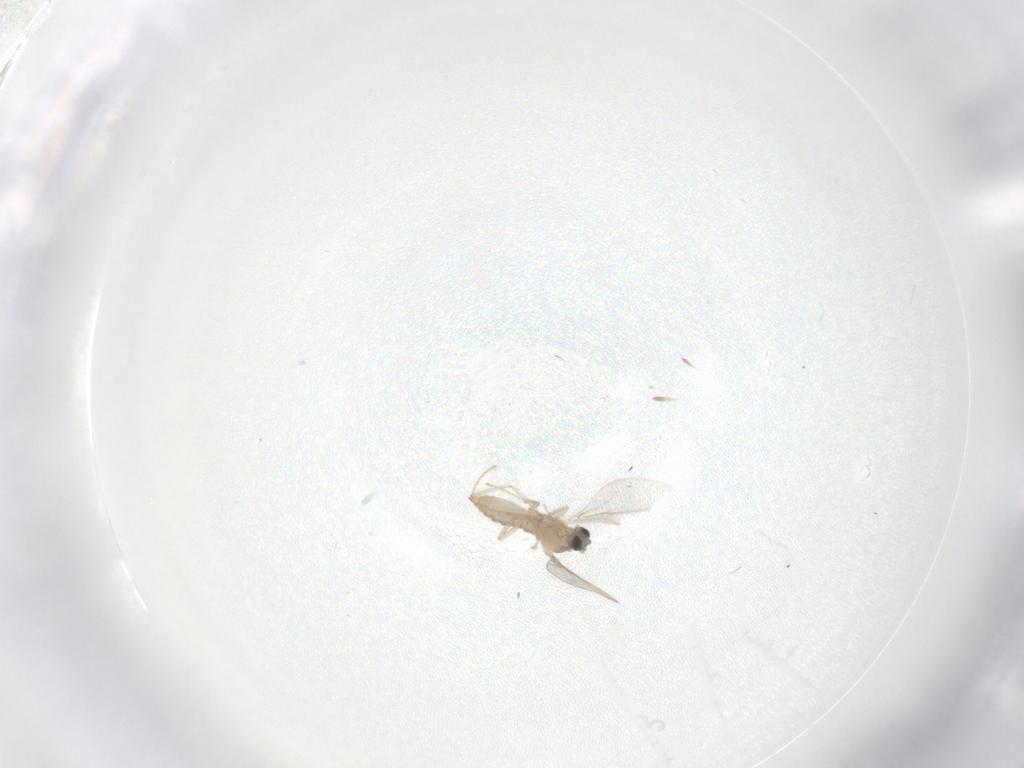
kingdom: Animalia
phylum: Arthropoda
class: Insecta
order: Diptera
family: Cecidomyiidae
